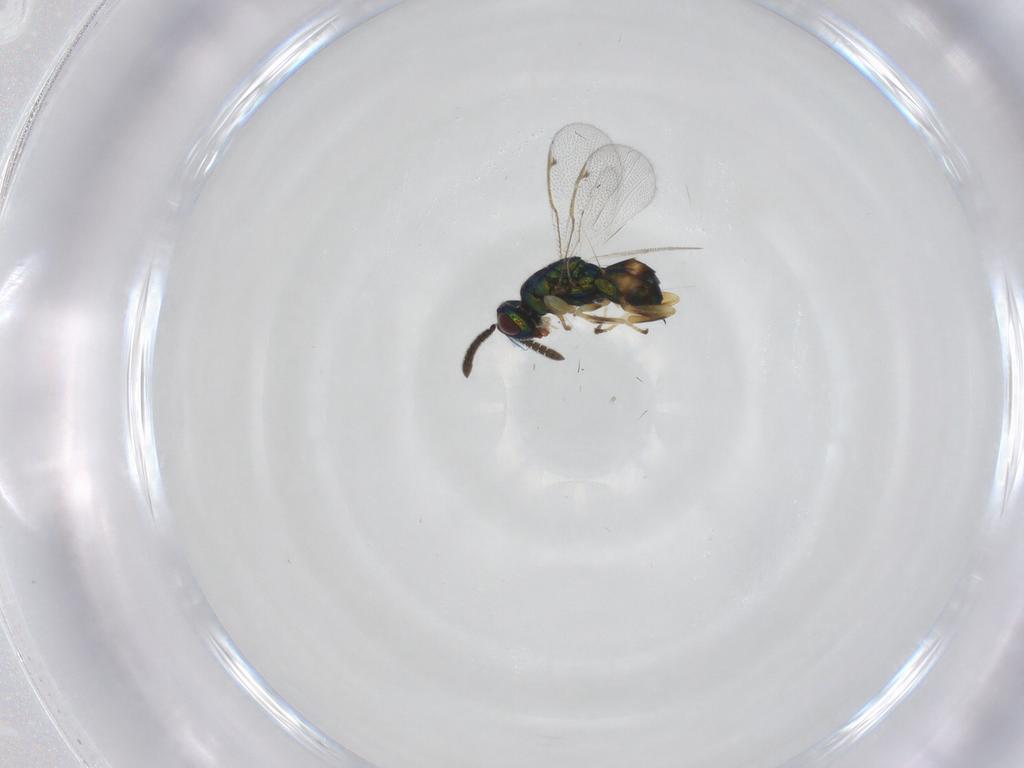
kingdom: Animalia
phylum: Arthropoda
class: Insecta
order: Hymenoptera
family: Torymidae
